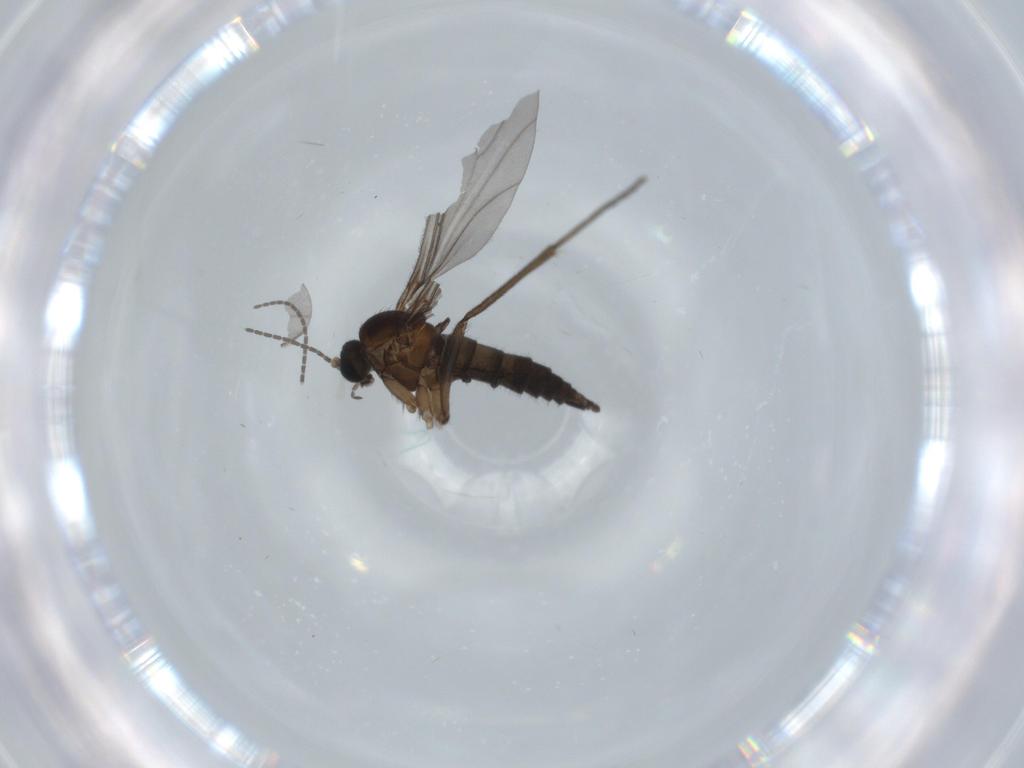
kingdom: Animalia
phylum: Arthropoda
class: Insecta
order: Diptera
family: Sciaridae
